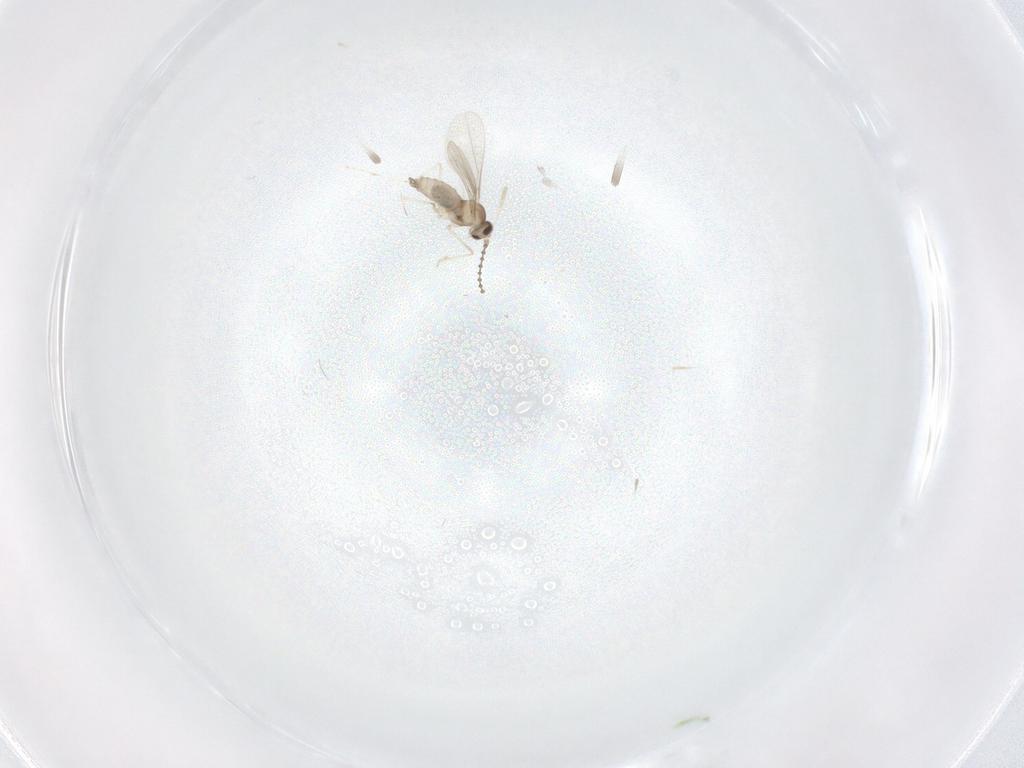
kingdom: Animalia
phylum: Arthropoda
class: Insecta
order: Diptera
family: Cecidomyiidae
